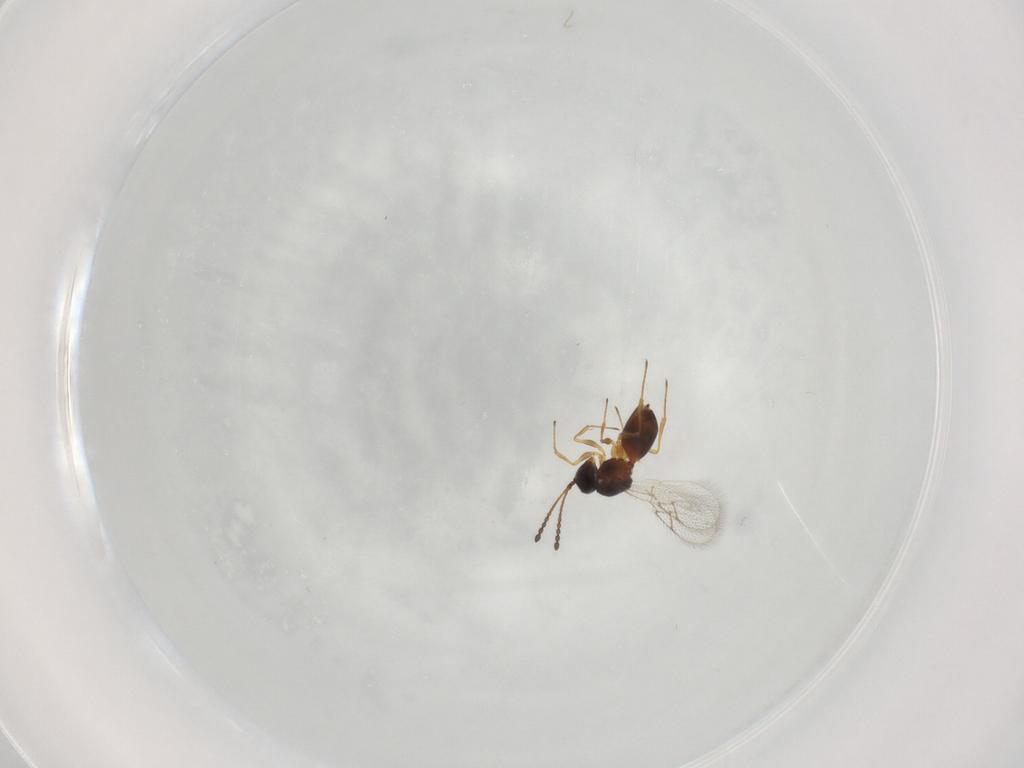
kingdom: Animalia
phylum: Arthropoda
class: Insecta
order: Hymenoptera
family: Figitidae
